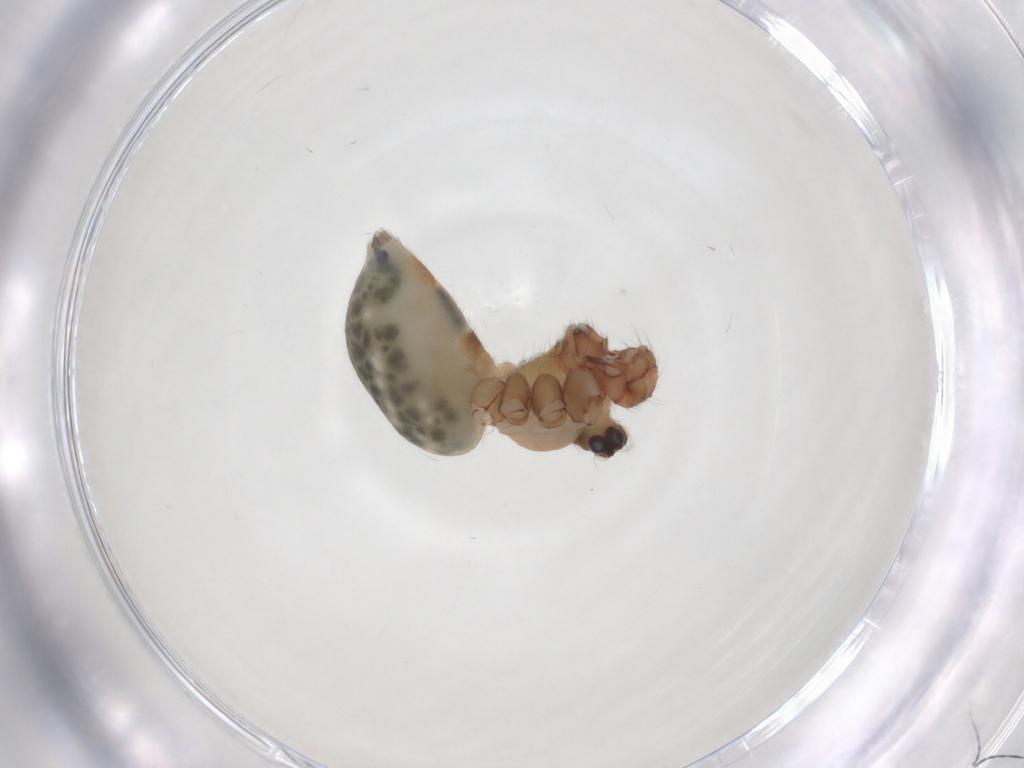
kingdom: Animalia
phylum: Arthropoda
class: Arachnida
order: Araneae
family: Pholcidae
